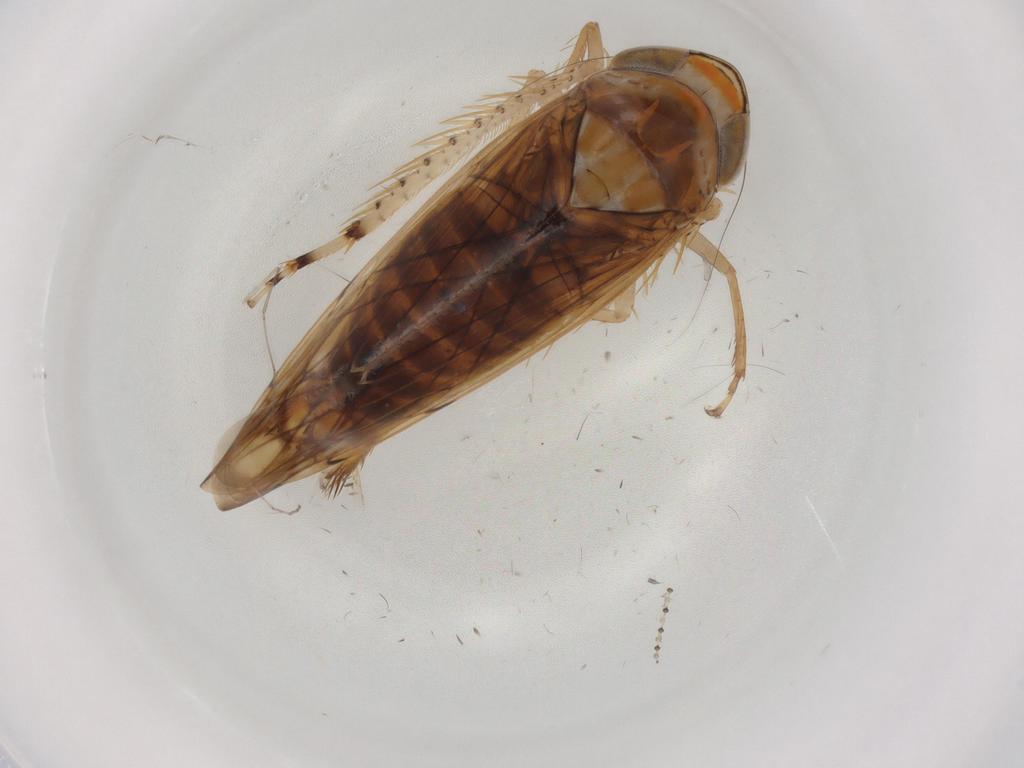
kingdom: Animalia
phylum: Arthropoda
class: Insecta
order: Hemiptera
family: Cicadellidae
